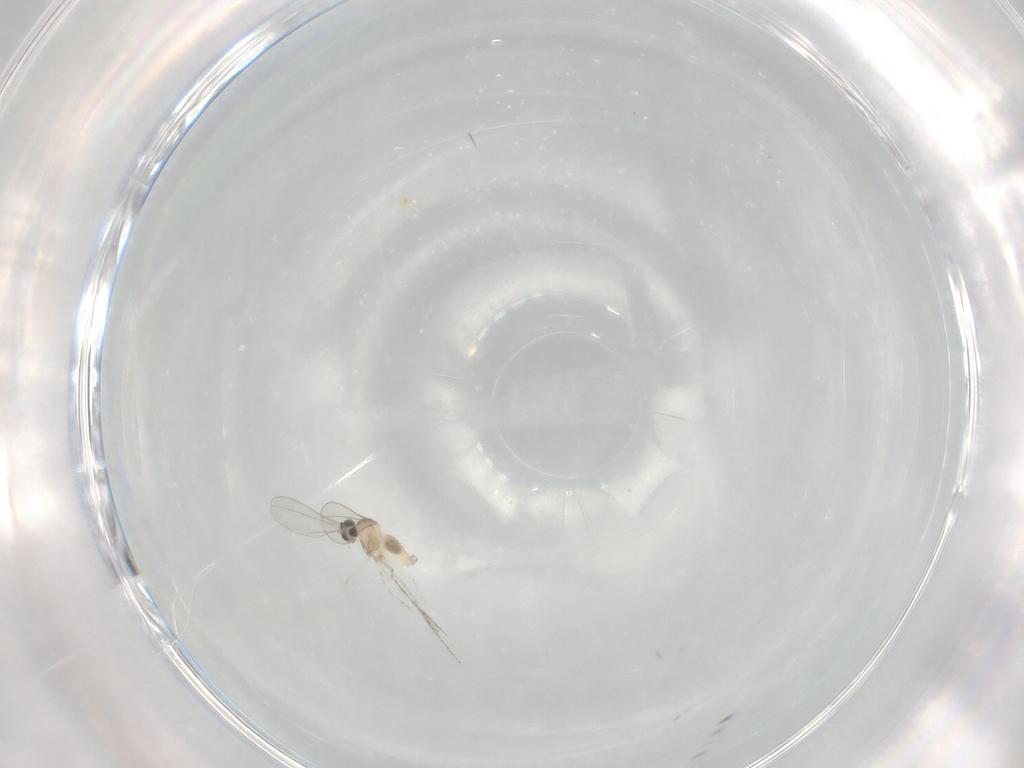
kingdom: Animalia
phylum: Arthropoda
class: Insecta
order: Diptera
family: Cecidomyiidae
